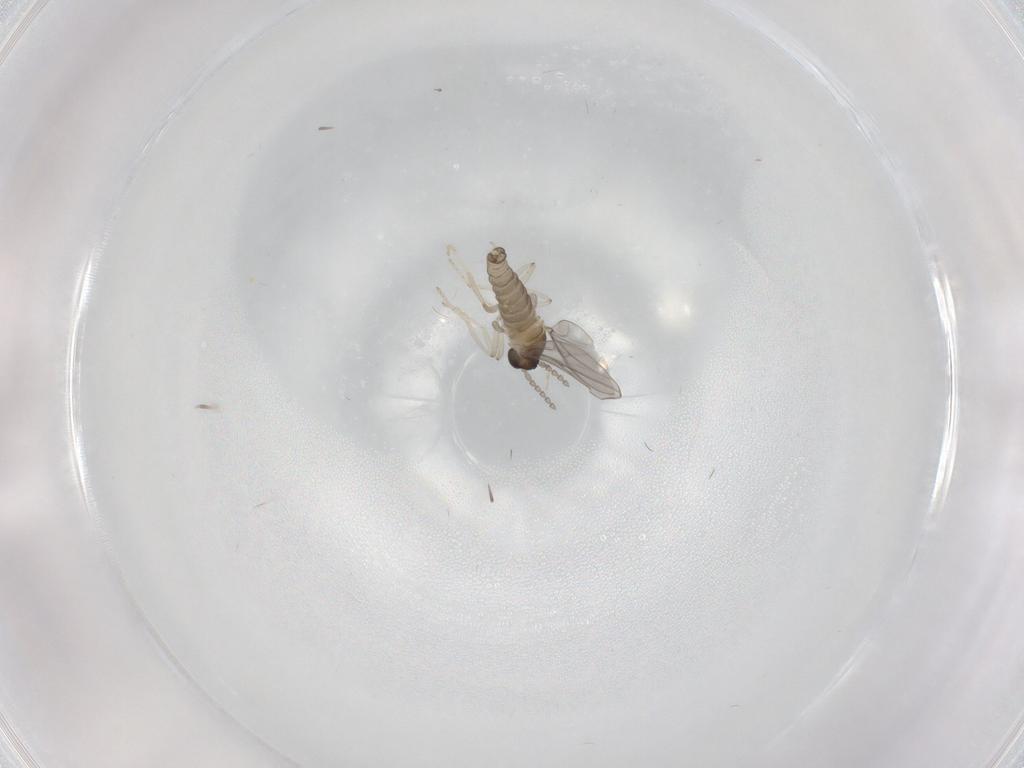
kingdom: Animalia
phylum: Arthropoda
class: Insecta
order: Diptera
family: Cecidomyiidae
